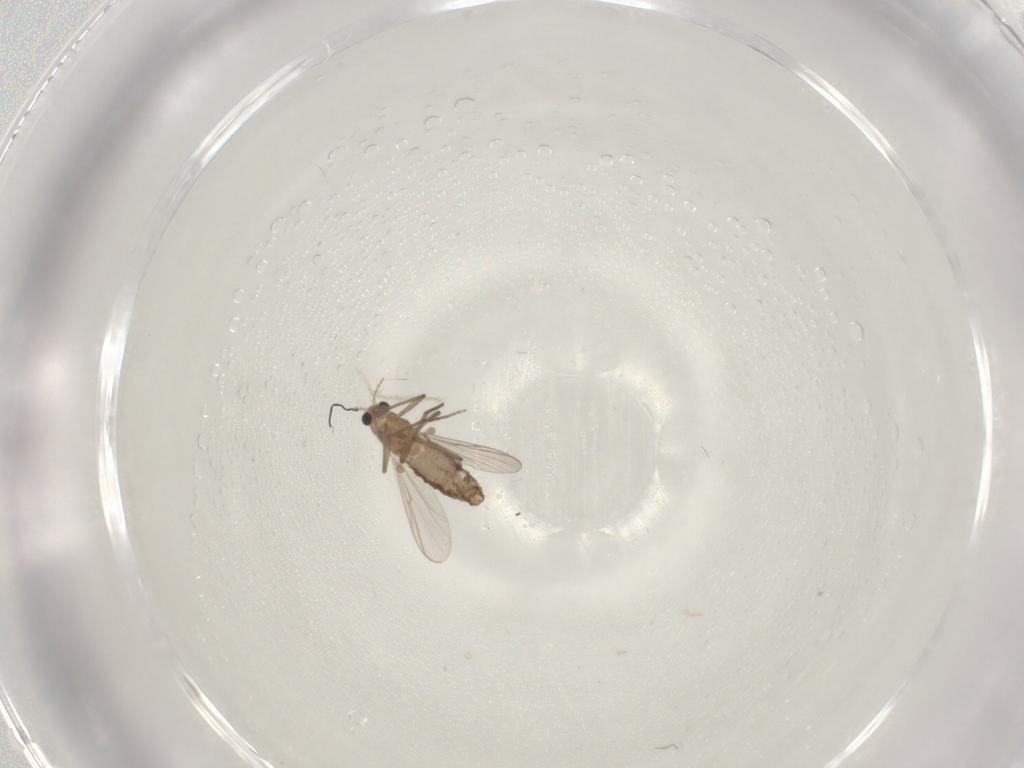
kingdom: Animalia
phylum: Arthropoda
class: Insecta
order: Diptera
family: Chironomidae
